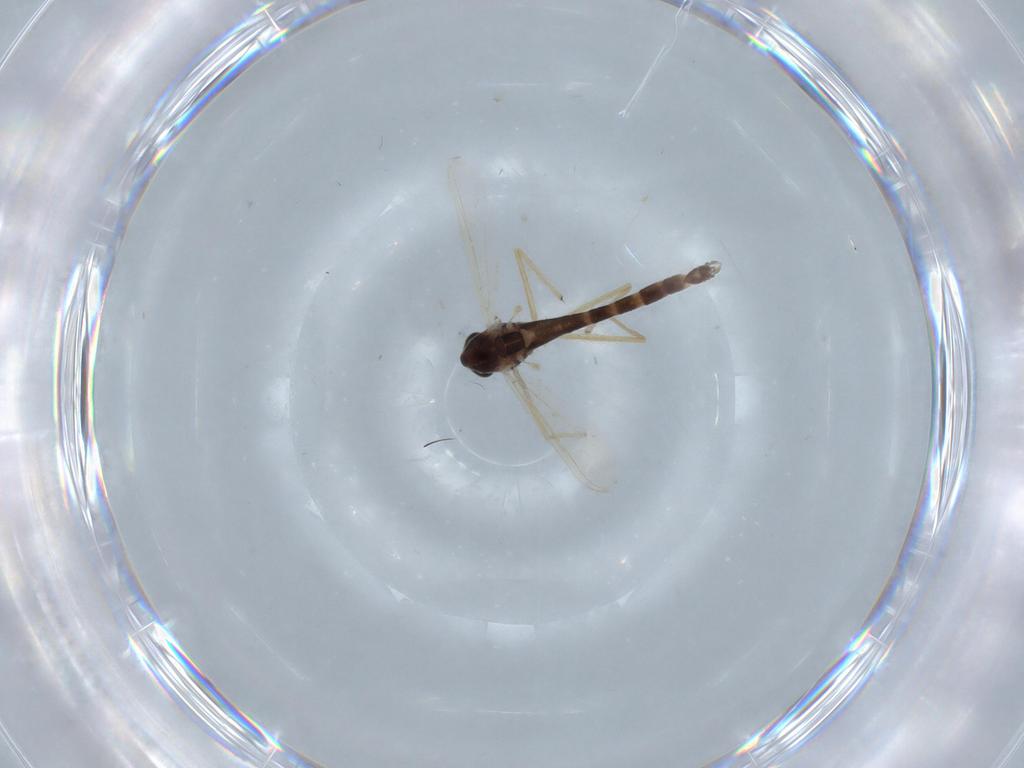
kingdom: Animalia
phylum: Arthropoda
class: Insecta
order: Diptera
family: Chironomidae
